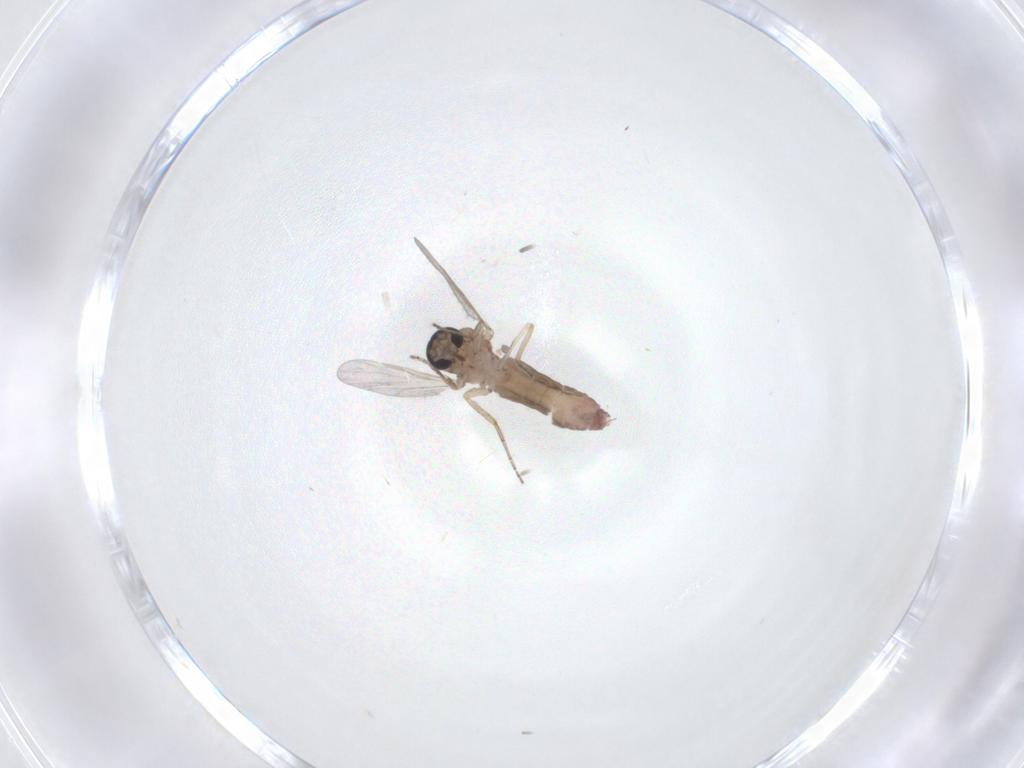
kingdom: Animalia
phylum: Arthropoda
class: Insecta
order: Diptera
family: Ceratopogonidae
